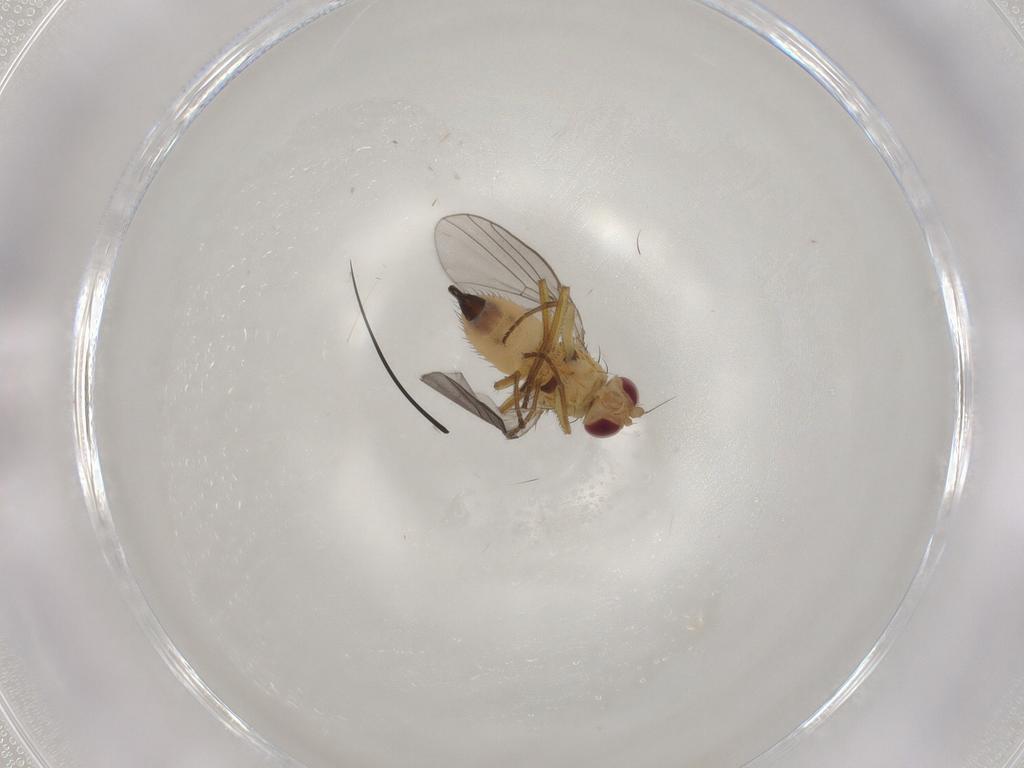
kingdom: Animalia
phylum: Arthropoda
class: Insecta
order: Diptera
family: Agromyzidae
